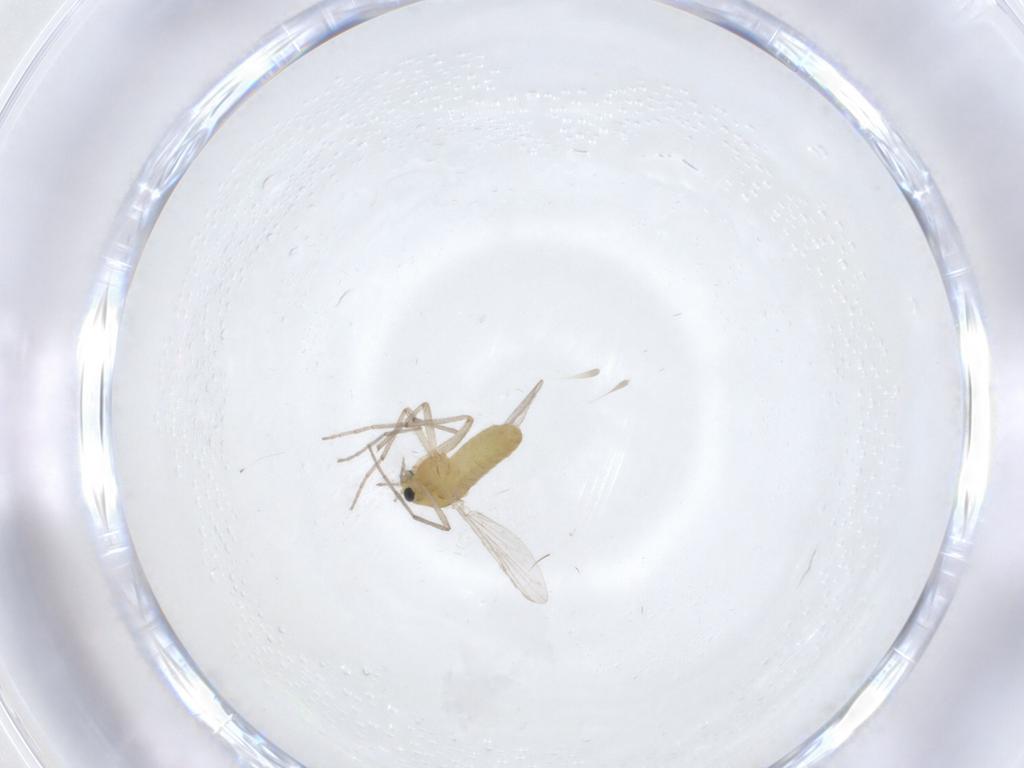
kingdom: Animalia
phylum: Arthropoda
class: Insecta
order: Diptera
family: Chironomidae
